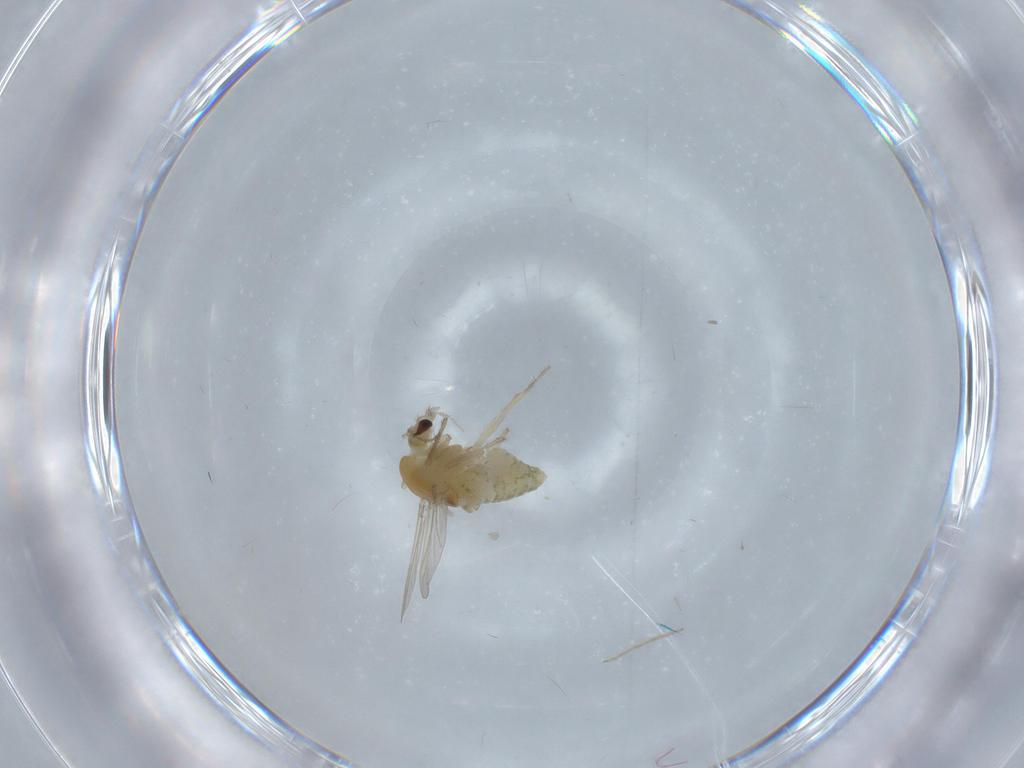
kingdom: Animalia
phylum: Arthropoda
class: Insecta
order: Diptera
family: Chironomidae
